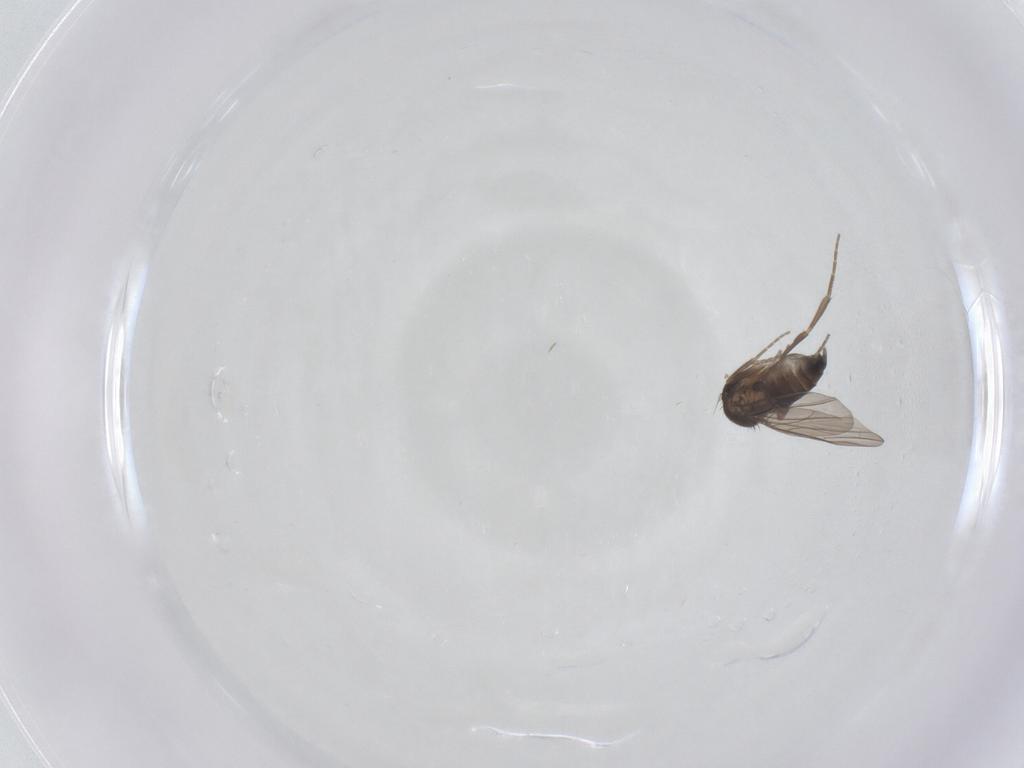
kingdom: Animalia
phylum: Arthropoda
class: Insecta
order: Diptera
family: Phoridae
